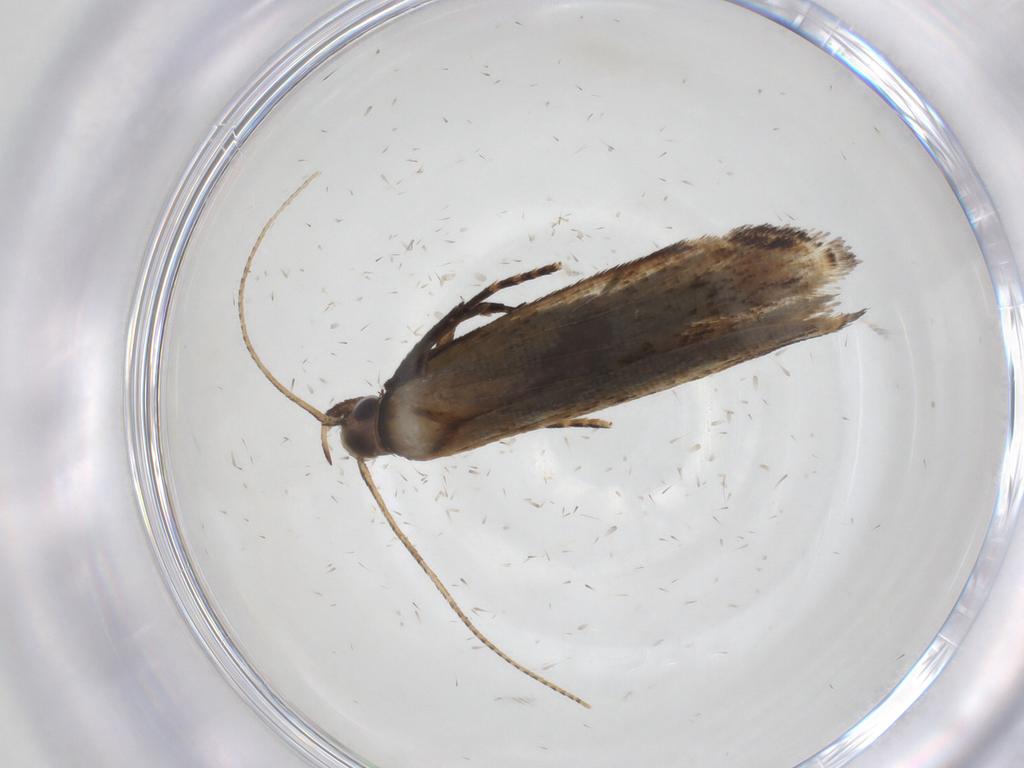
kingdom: Animalia
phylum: Arthropoda
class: Insecta
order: Lepidoptera
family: Gelechiidae
